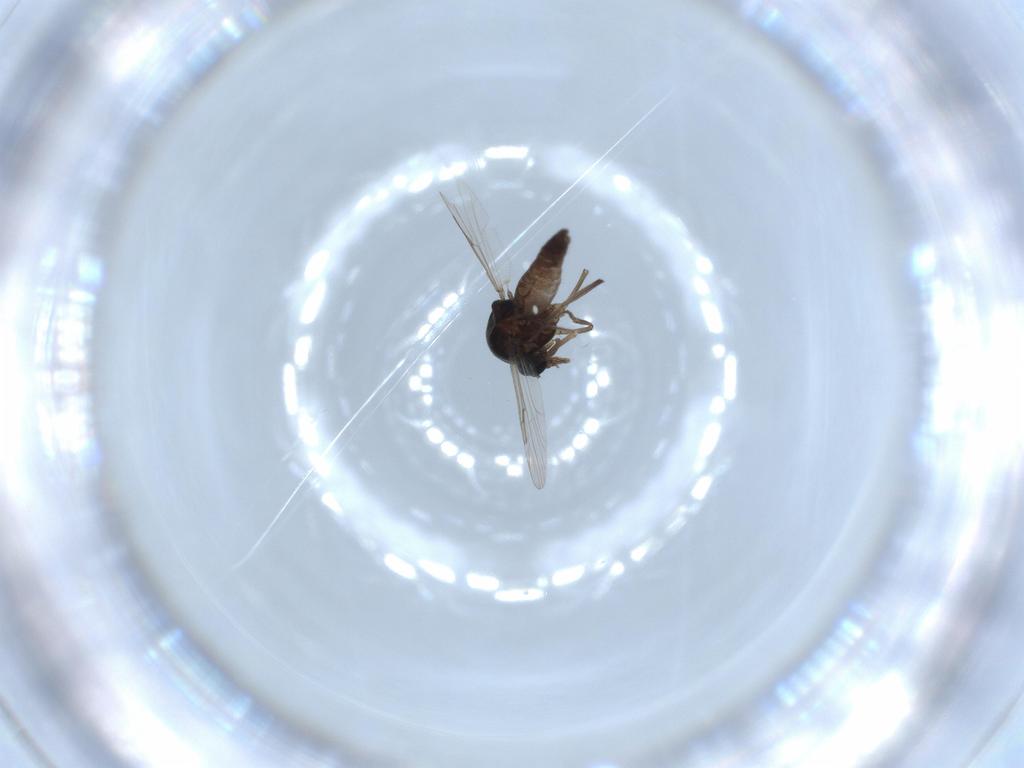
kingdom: Animalia
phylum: Arthropoda
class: Insecta
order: Diptera
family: Ceratopogonidae
